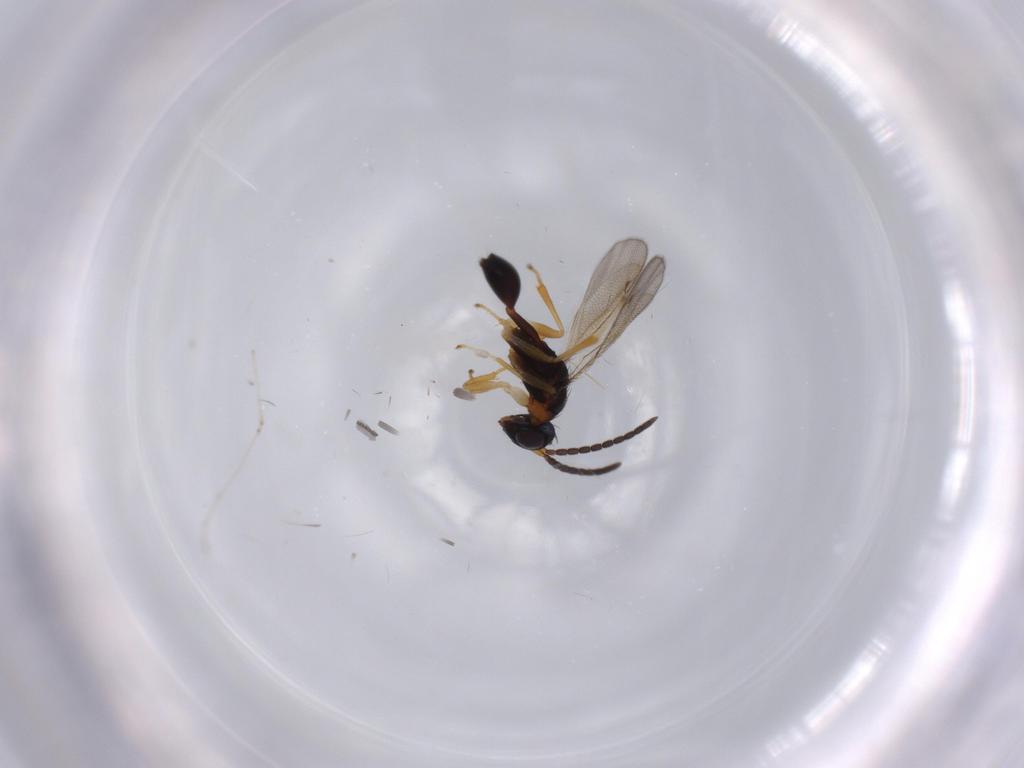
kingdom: Animalia
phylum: Arthropoda
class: Insecta
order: Hymenoptera
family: Diparidae
